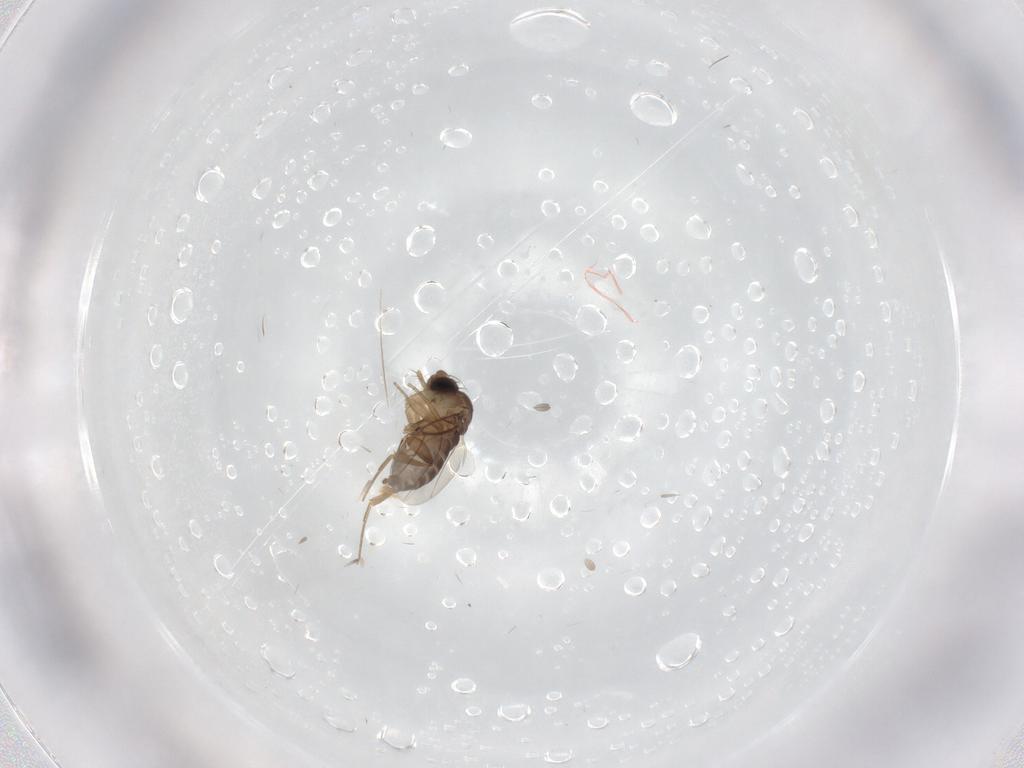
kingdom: Animalia
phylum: Arthropoda
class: Insecta
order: Diptera
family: Phoridae
